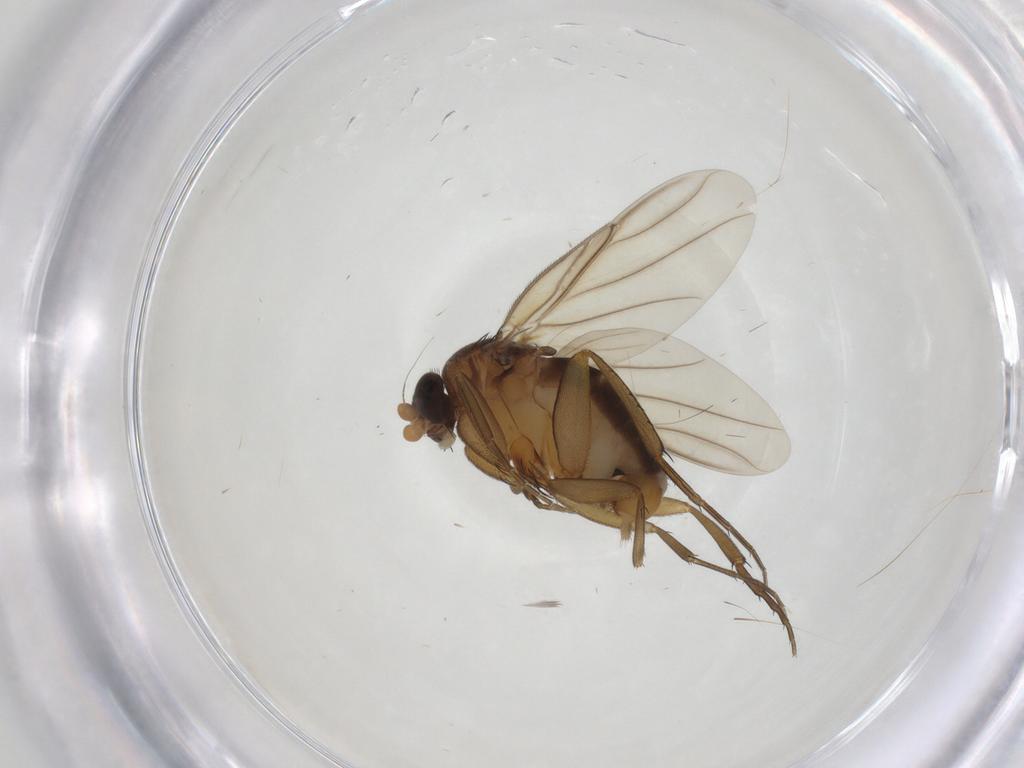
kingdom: Animalia
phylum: Arthropoda
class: Insecta
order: Diptera
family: Phoridae
